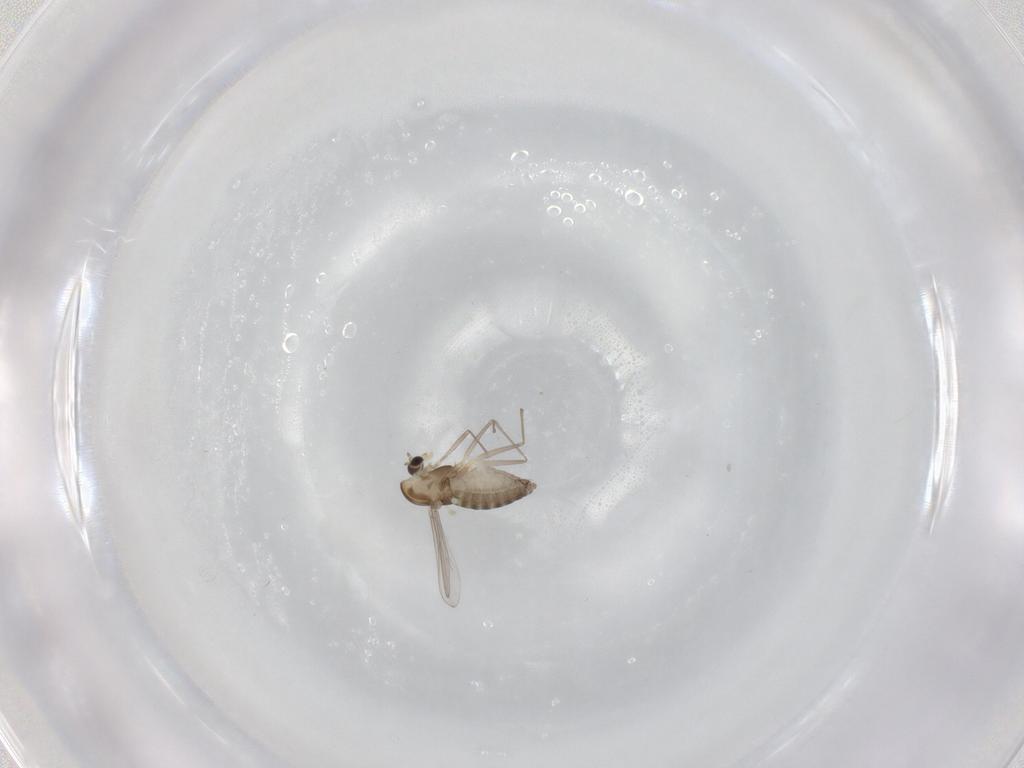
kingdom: Animalia
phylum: Arthropoda
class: Insecta
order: Diptera
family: Chironomidae
